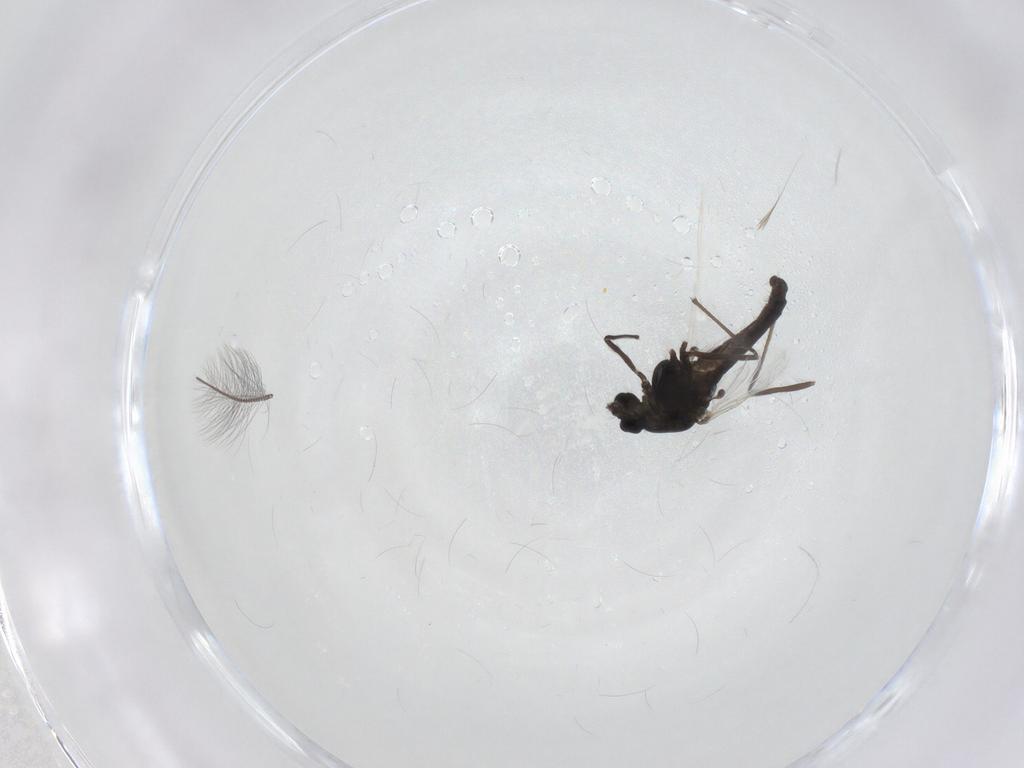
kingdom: Animalia
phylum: Arthropoda
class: Insecta
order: Diptera
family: Chironomidae
